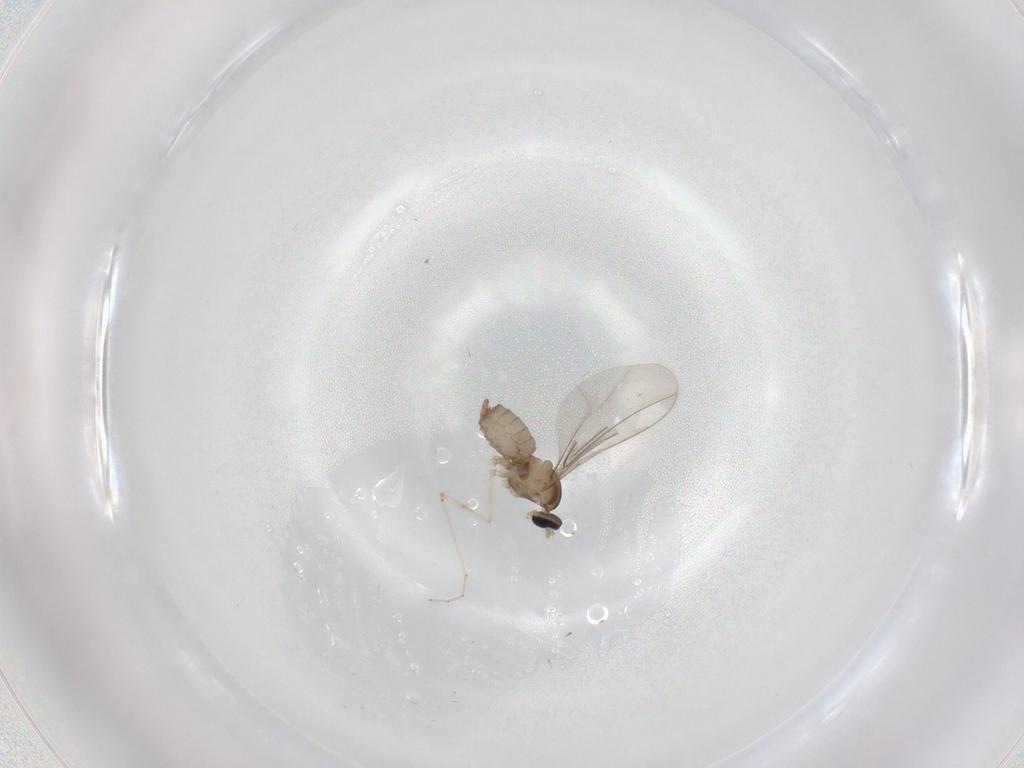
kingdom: Animalia
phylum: Arthropoda
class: Insecta
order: Diptera
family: Cecidomyiidae
